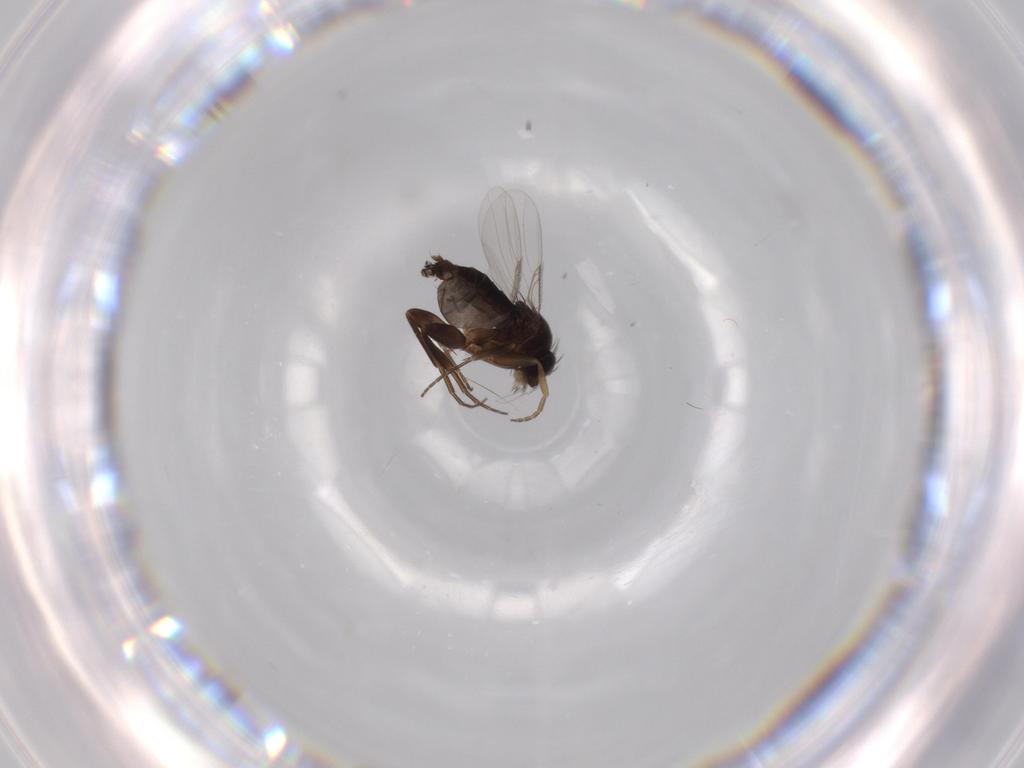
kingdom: Animalia
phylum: Arthropoda
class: Insecta
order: Diptera
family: Phoridae
